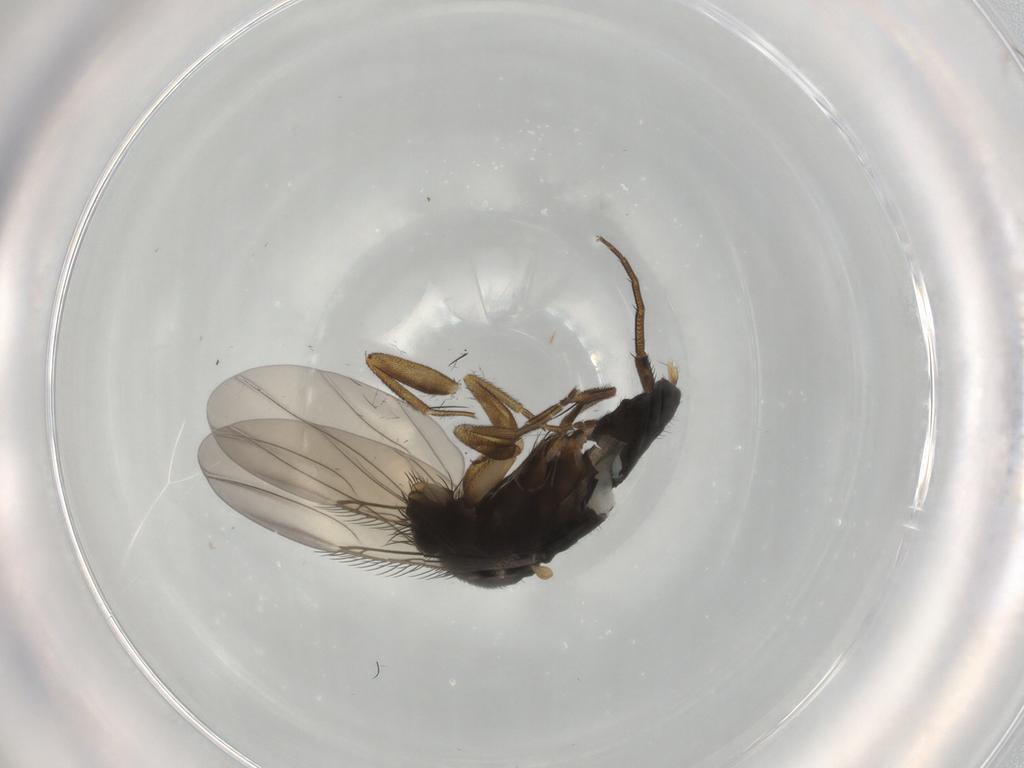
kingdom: Animalia
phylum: Arthropoda
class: Insecta
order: Diptera
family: Phoridae
